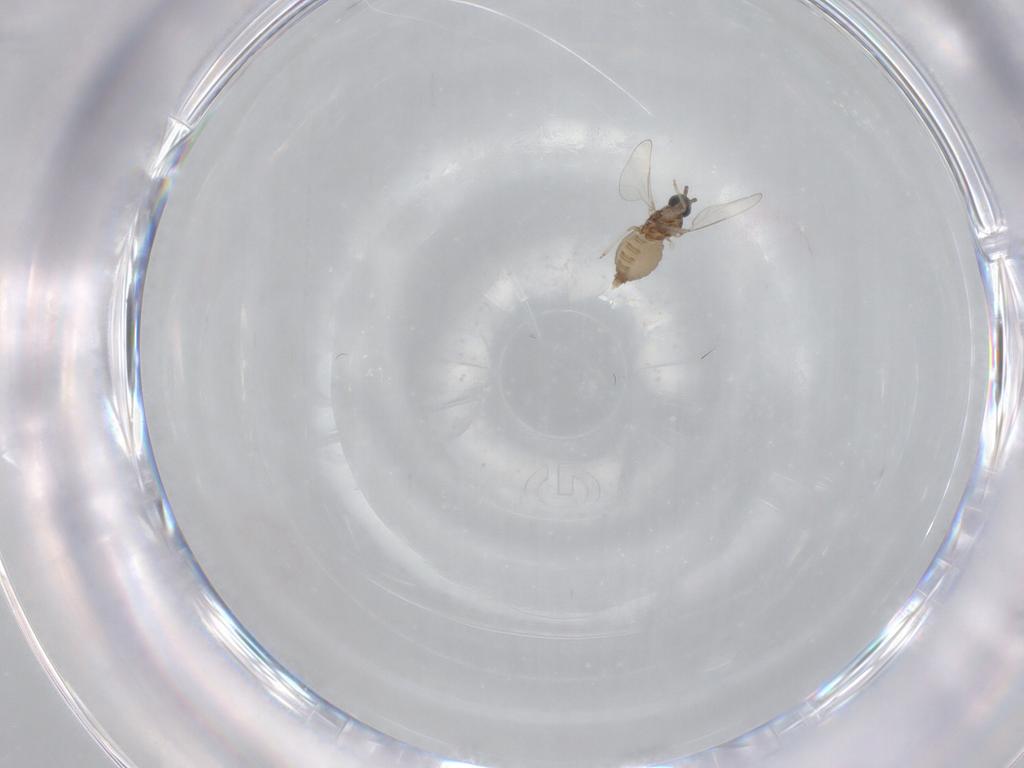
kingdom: Animalia
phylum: Arthropoda
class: Insecta
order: Diptera
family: Cecidomyiidae
